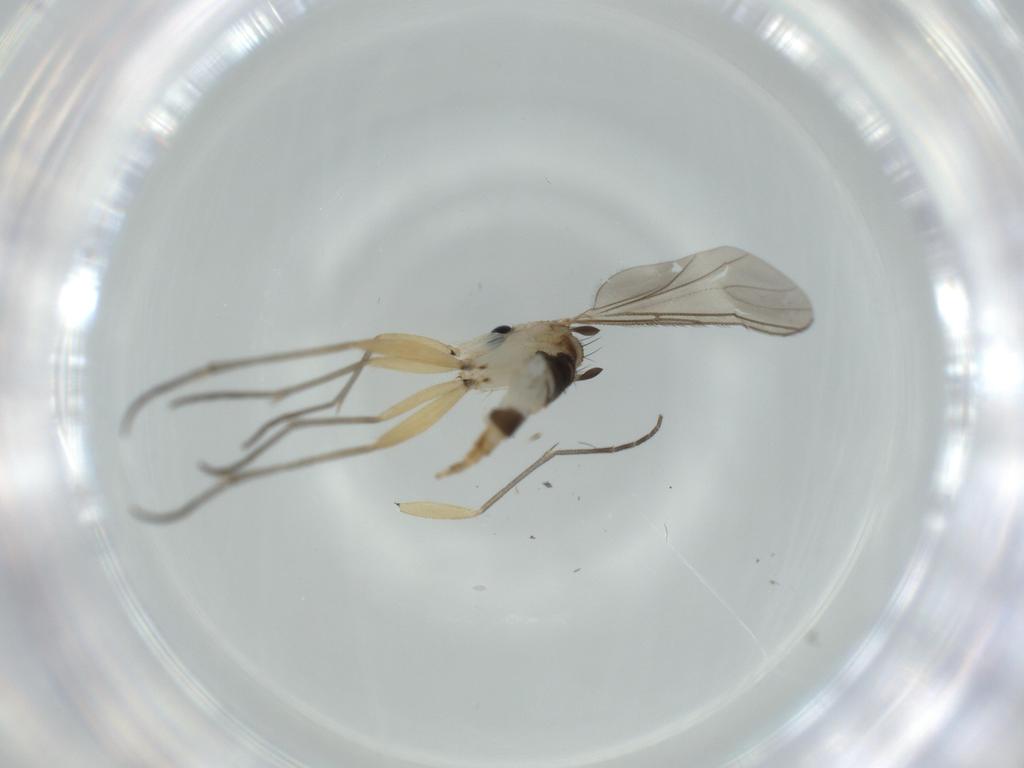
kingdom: Animalia
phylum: Arthropoda
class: Insecta
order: Diptera
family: Sciaridae
